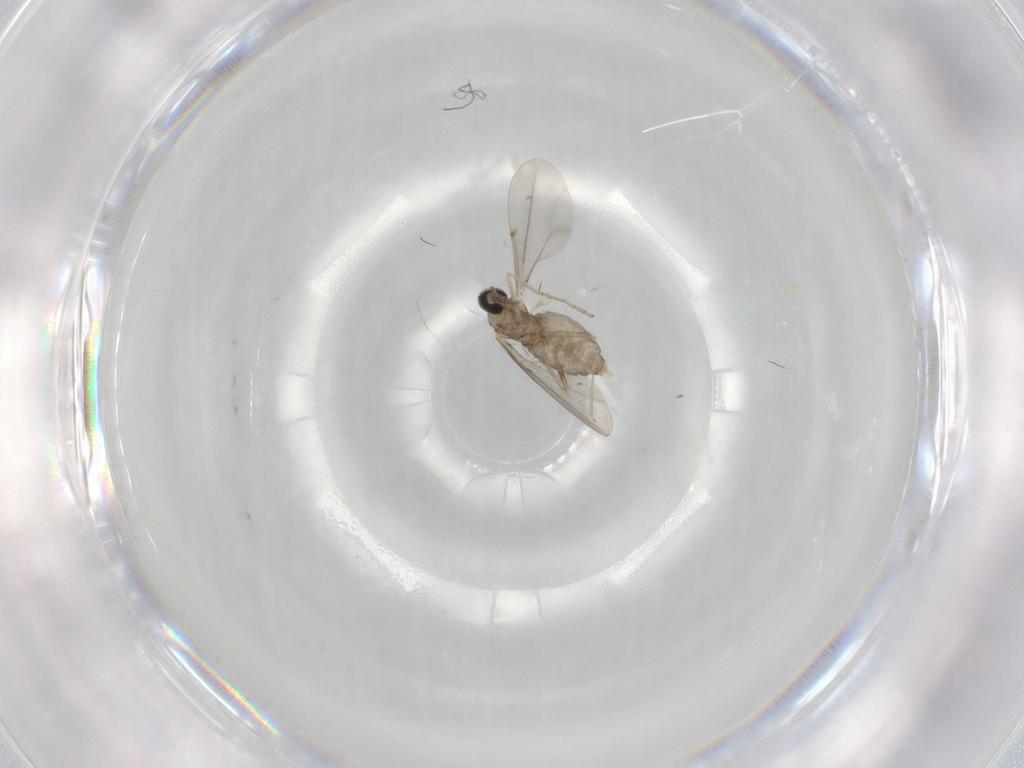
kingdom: Animalia
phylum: Arthropoda
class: Insecta
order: Diptera
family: Cecidomyiidae
